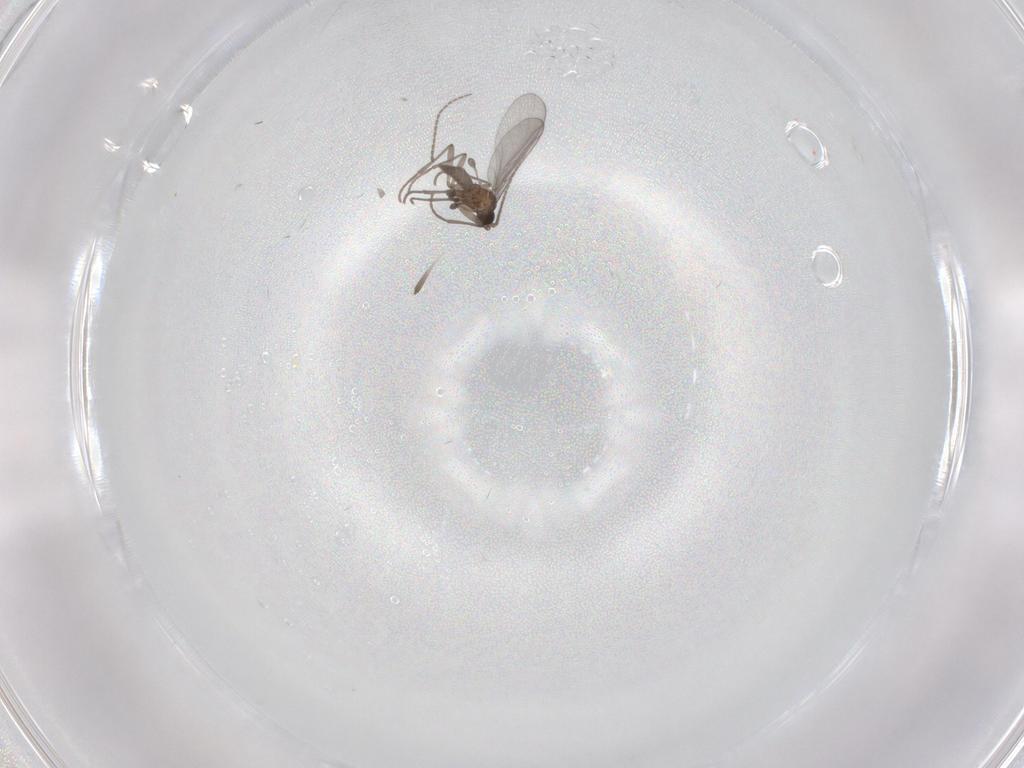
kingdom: Animalia
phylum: Arthropoda
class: Insecta
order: Diptera
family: Sciaridae
